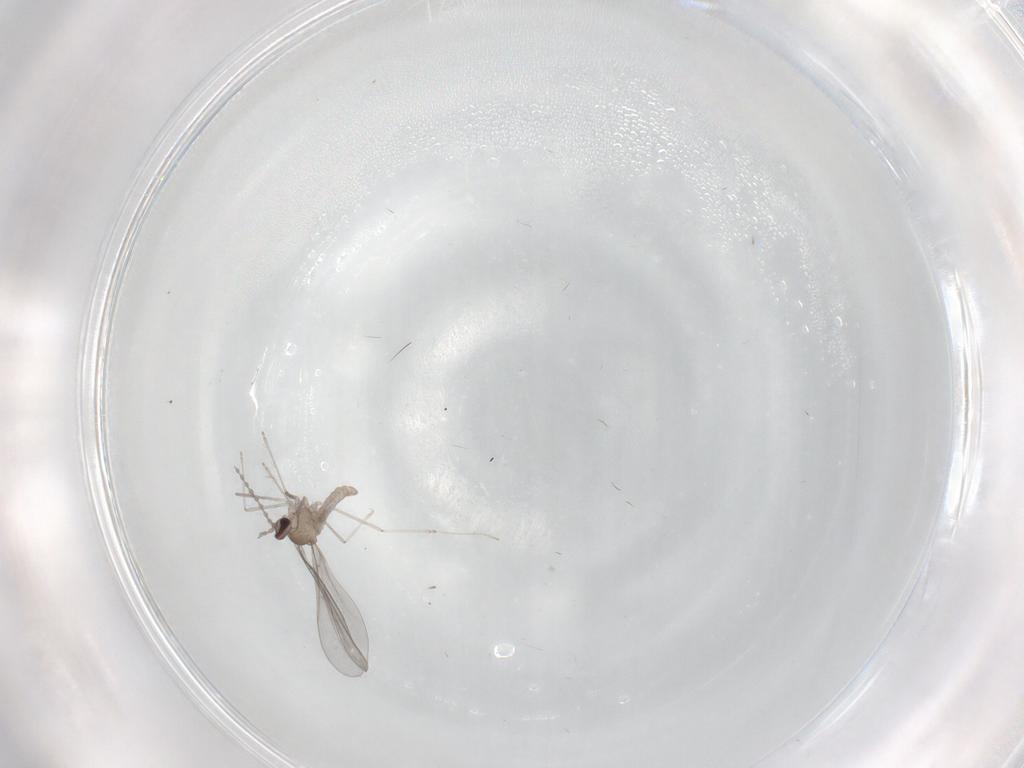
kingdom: Animalia
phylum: Arthropoda
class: Insecta
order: Diptera
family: Cecidomyiidae
